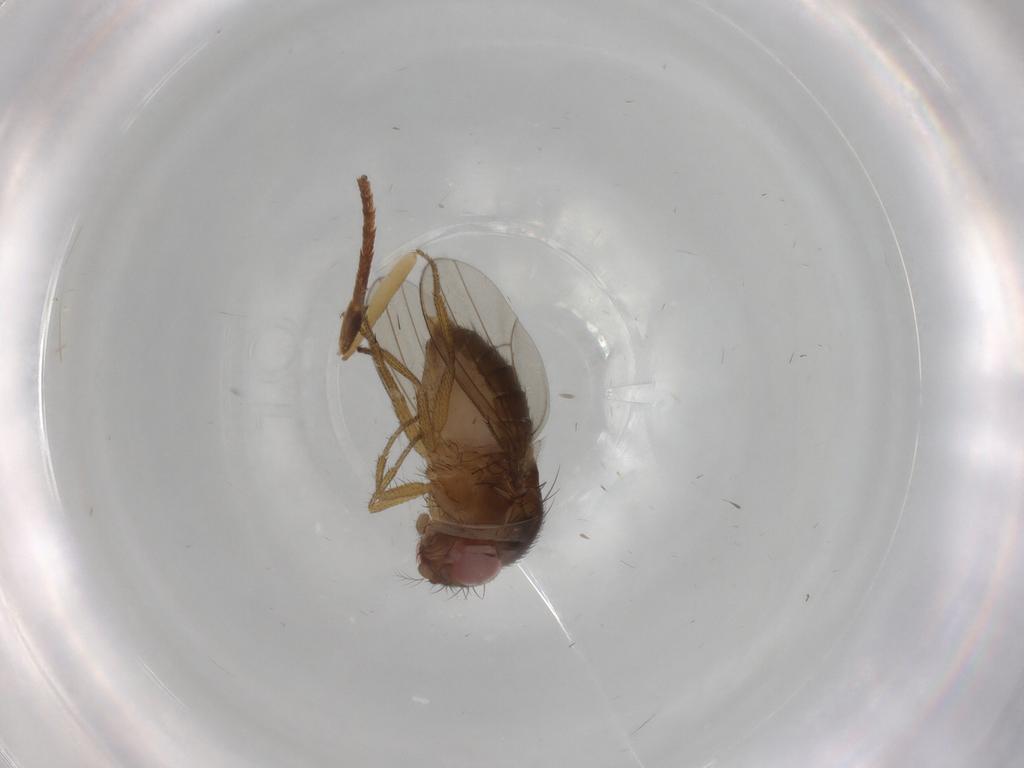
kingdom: Animalia
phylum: Arthropoda
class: Insecta
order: Diptera
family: Drosophilidae
